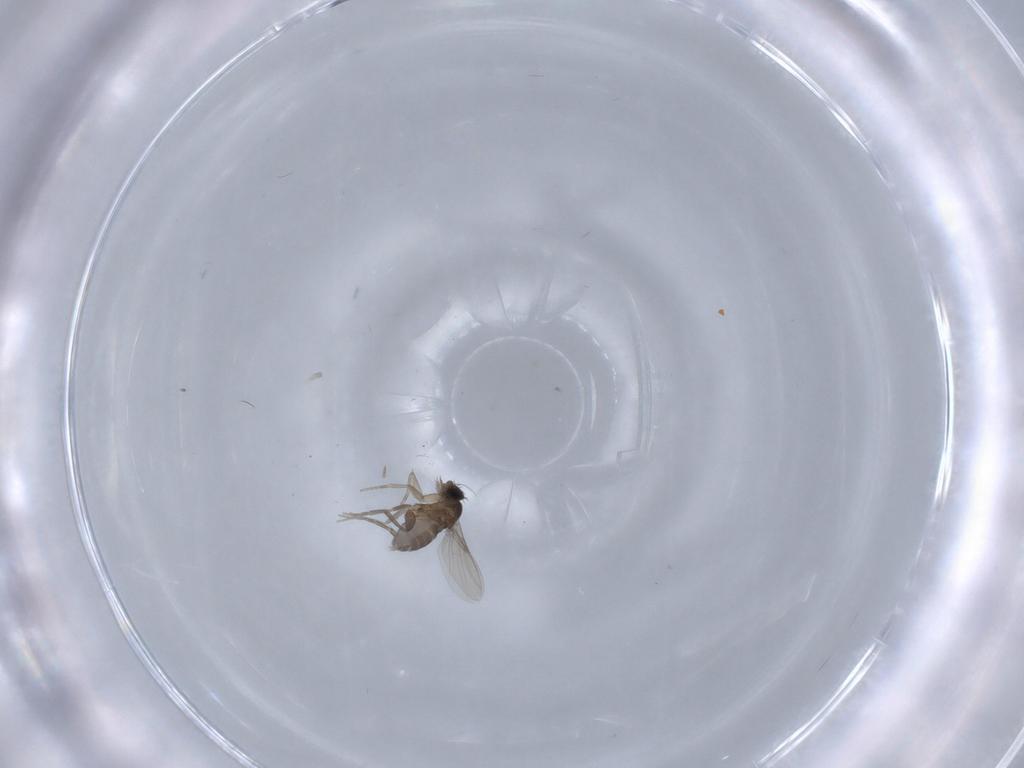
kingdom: Animalia
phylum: Arthropoda
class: Insecta
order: Diptera
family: Phoridae
